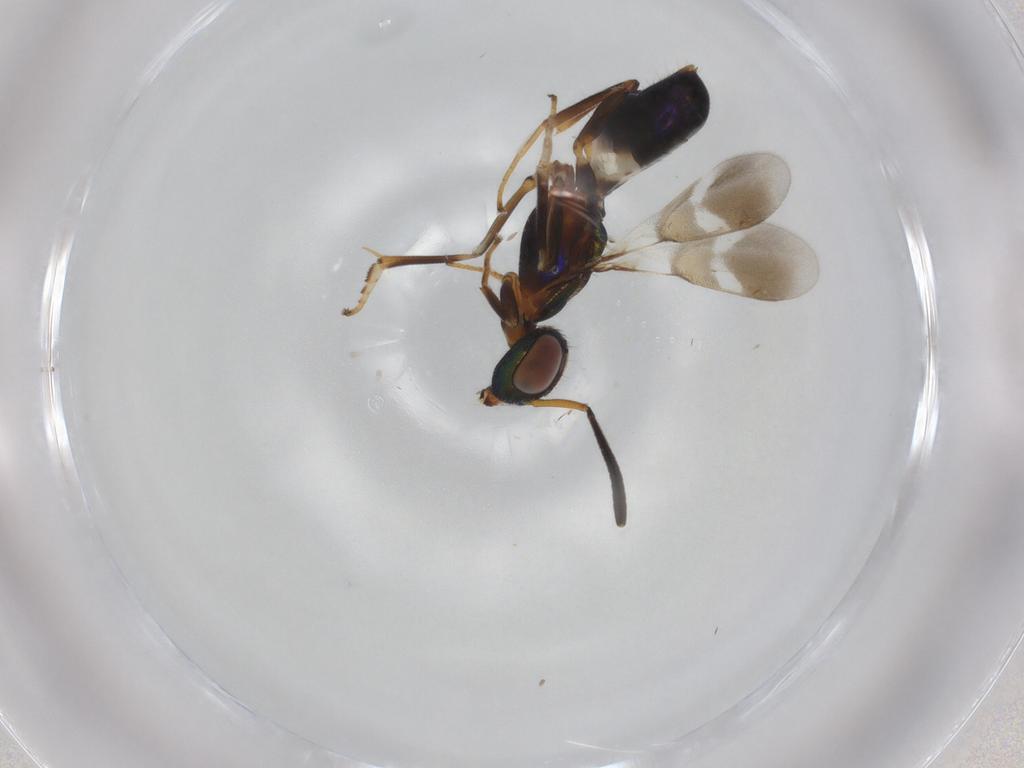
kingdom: Animalia
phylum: Arthropoda
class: Insecta
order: Hymenoptera
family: Eupelmidae
